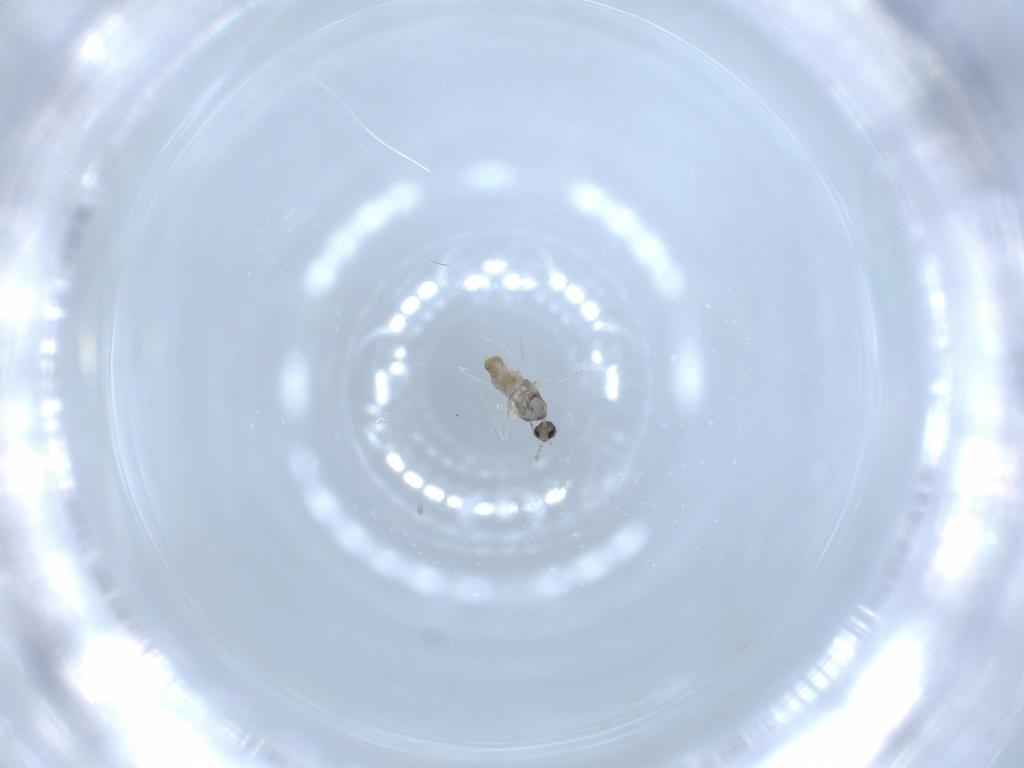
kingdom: Animalia
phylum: Arthropoda
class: Insecta
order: Diptera
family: Cecidomyiidae
